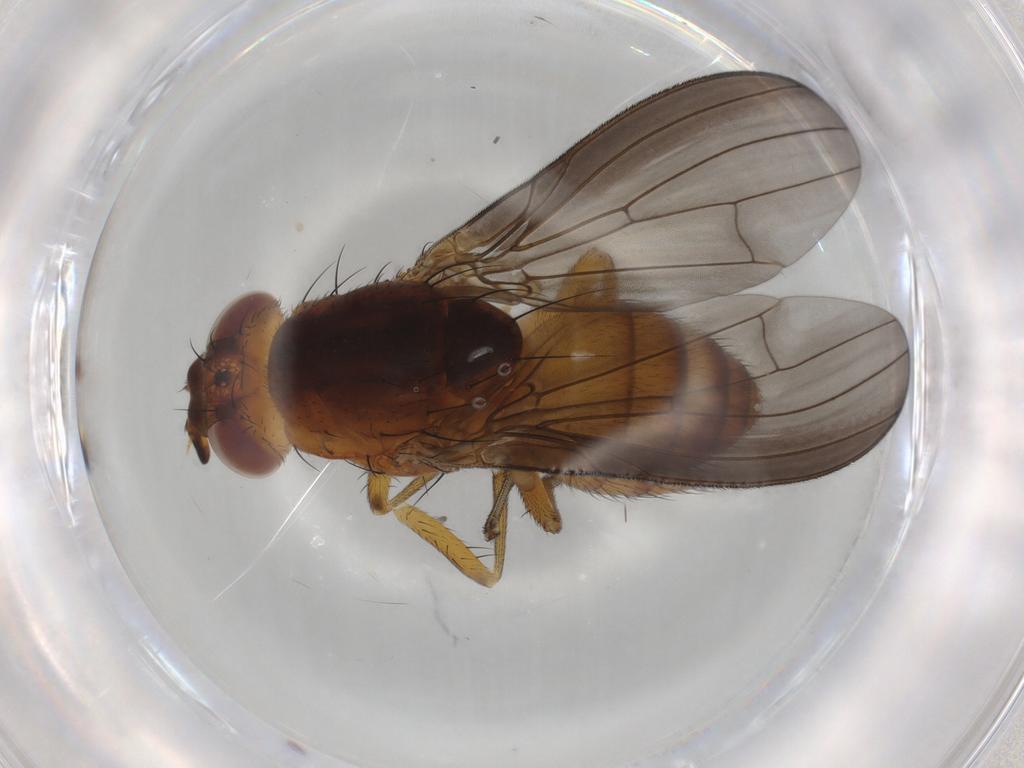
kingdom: Animalia
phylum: Arthropoda
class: Insecta
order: Diptera
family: Lauxaniidae
